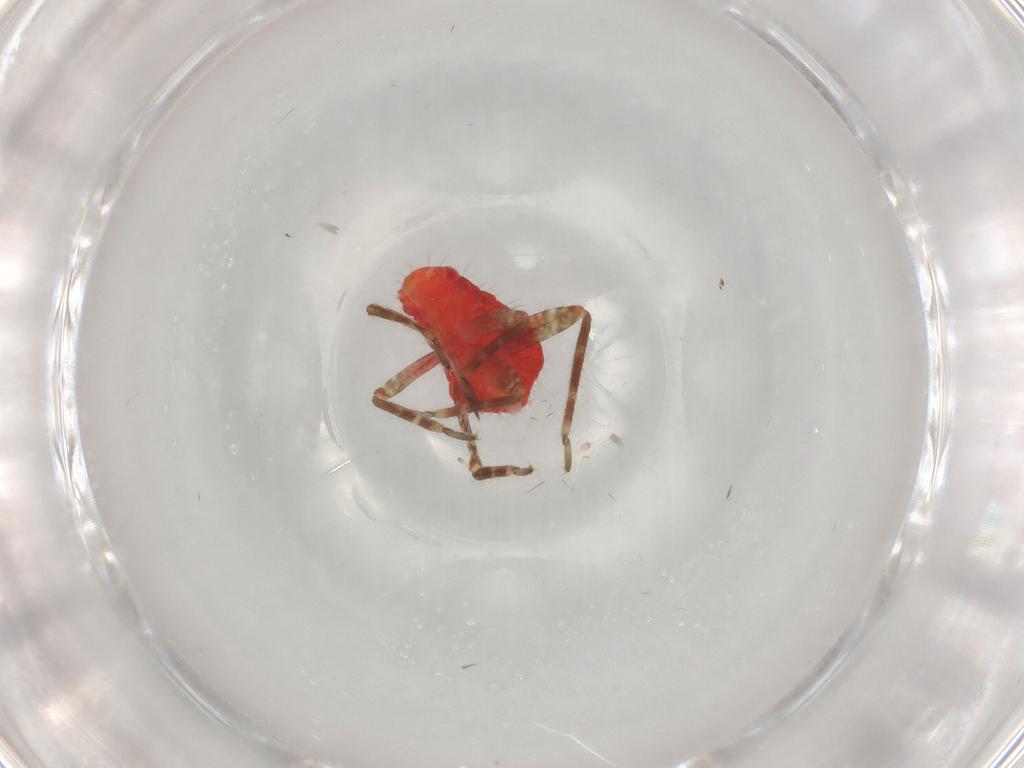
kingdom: Animalia
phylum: Arthropoda
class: Insecta
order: Hemiptera
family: Miridae
